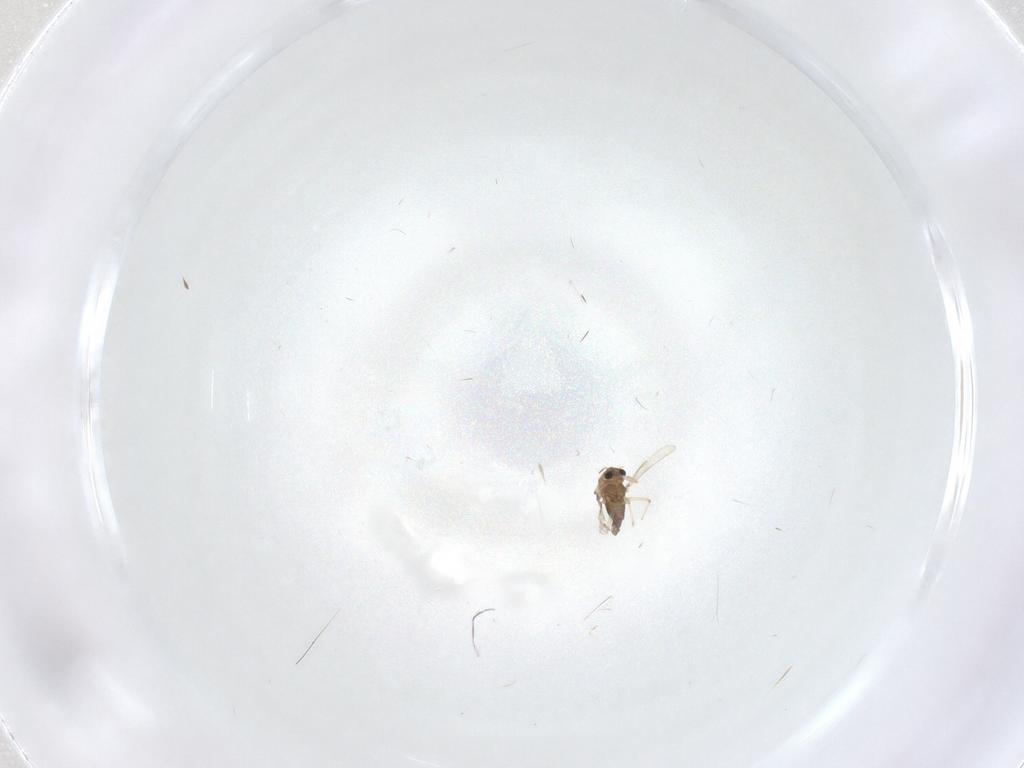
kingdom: Animalia
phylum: Arthropoda
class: Insecta
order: Diptera
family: Chironomidae
